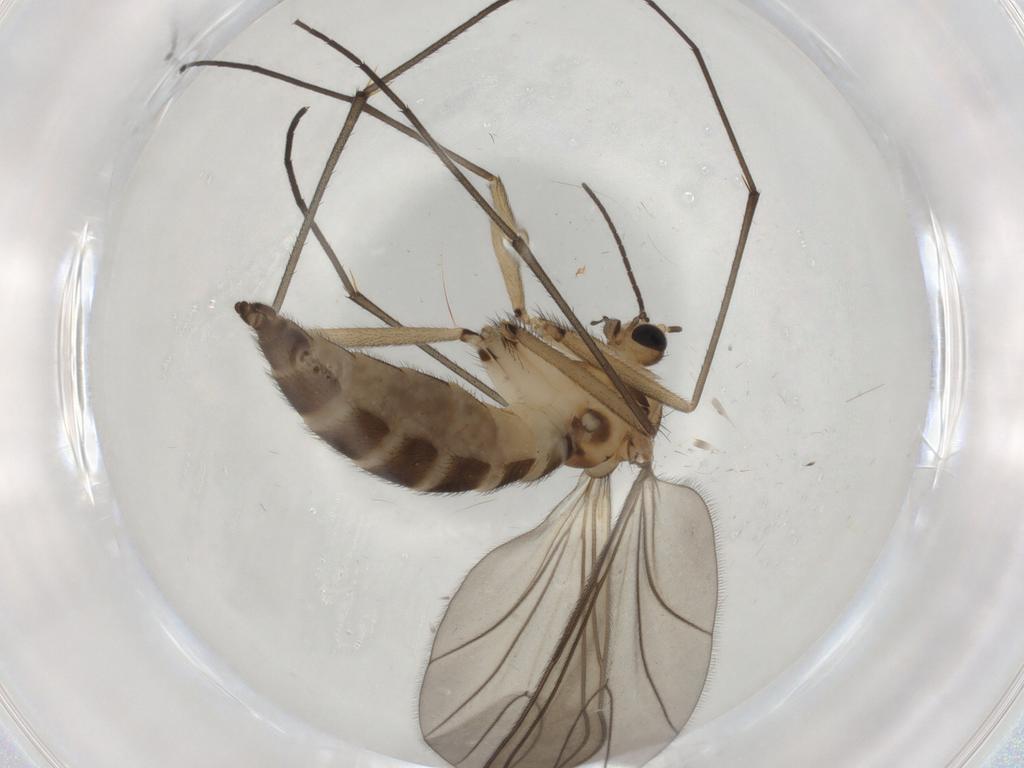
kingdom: Animalia
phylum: Arthropoda
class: Insecta
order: Diptera
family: Sciaridae
